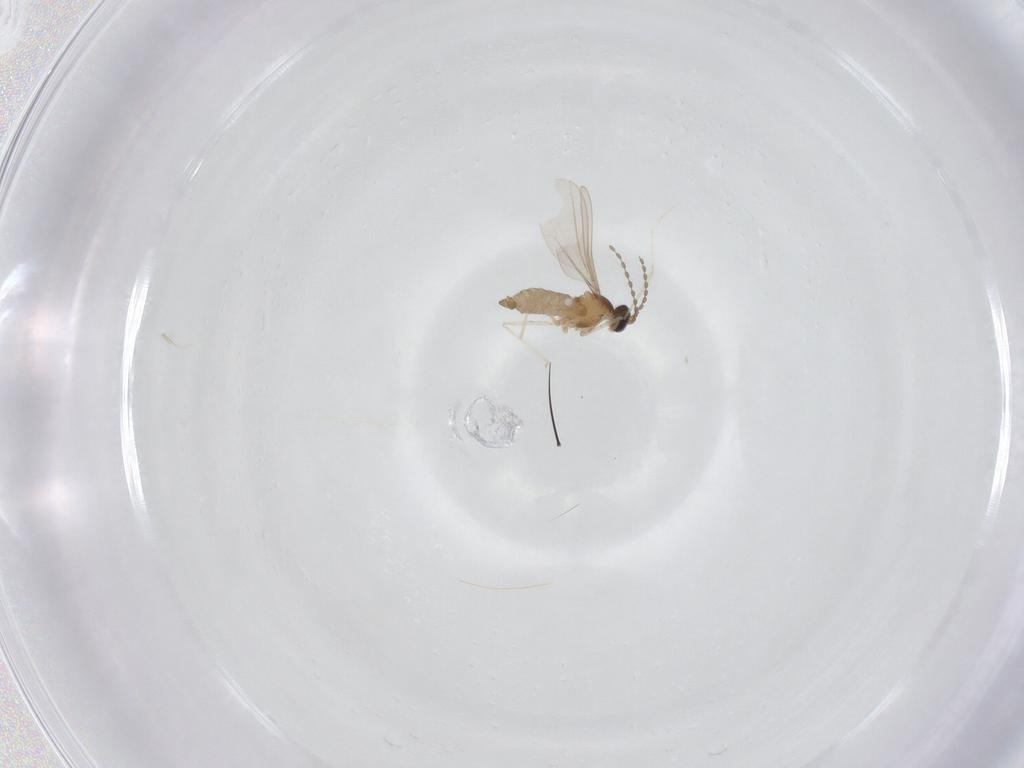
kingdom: Animalia
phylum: Arthropoda
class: Insecta
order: Diptera
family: Cecidomyiidae
